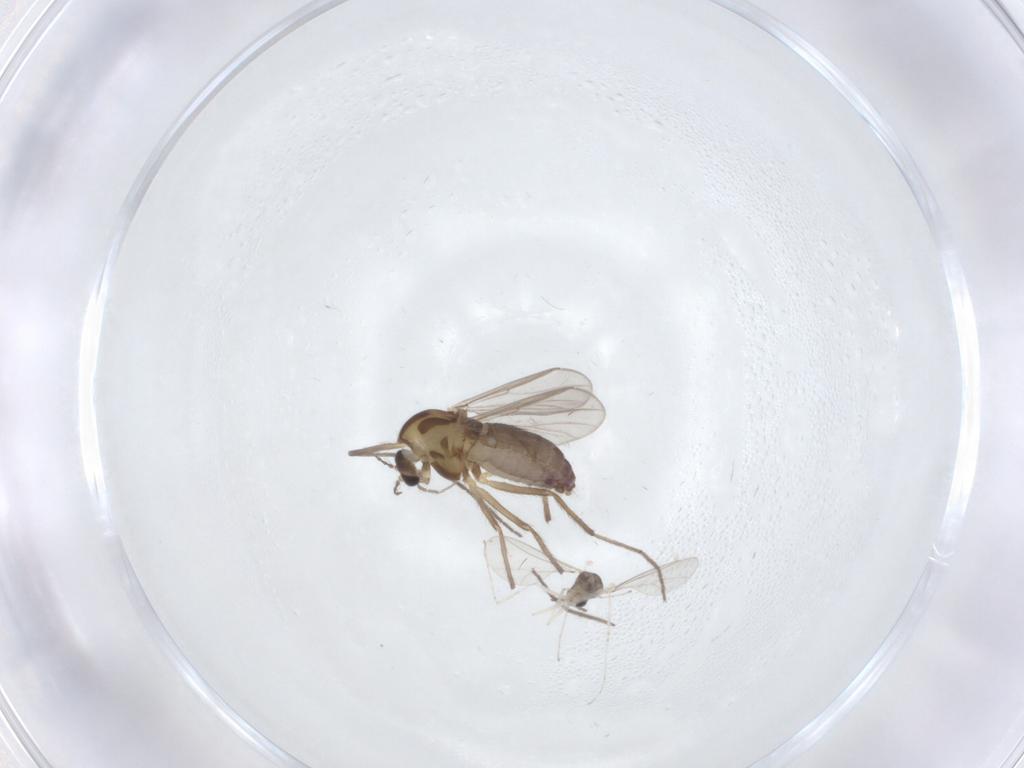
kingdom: Animalia
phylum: Arthropoda
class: Insecta
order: Diptera
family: Chironomidae
